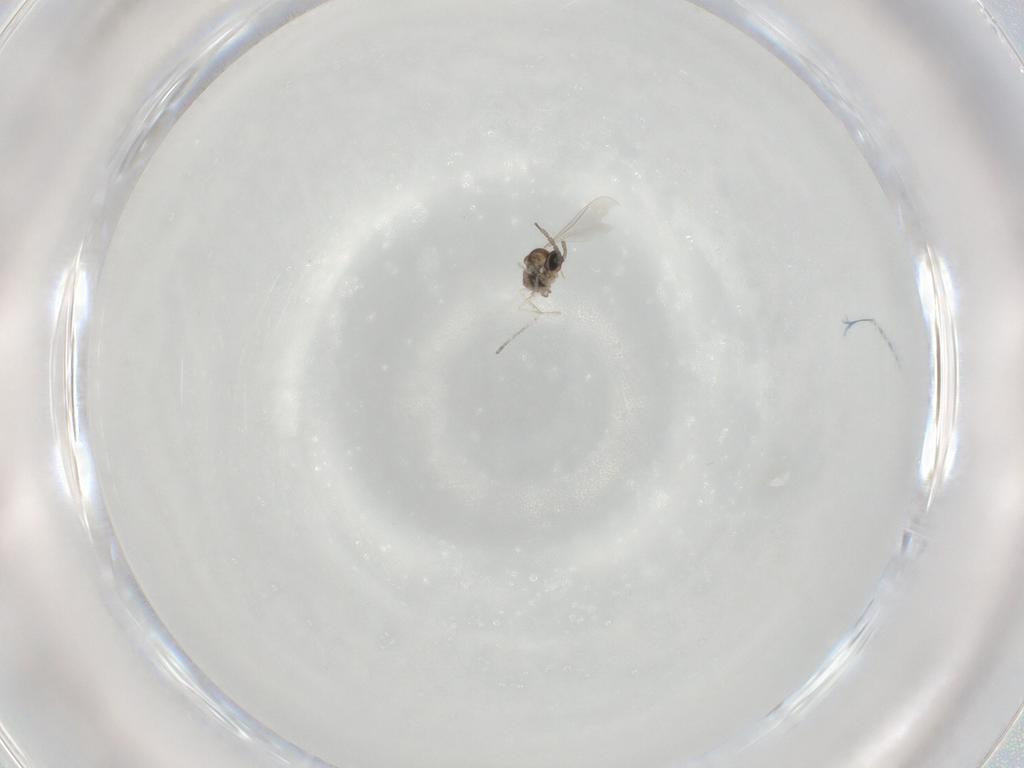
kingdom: Animalia
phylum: Arthropoda
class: Insecta
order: Diptera
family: Cecidomyiidae
